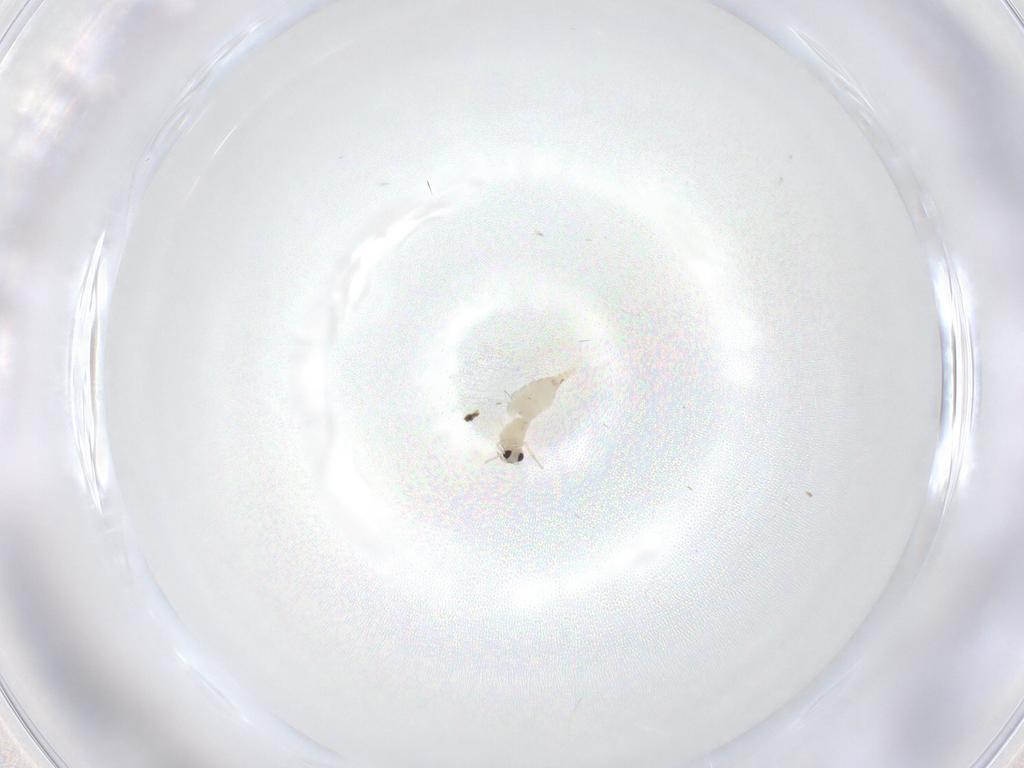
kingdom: Animalia
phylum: Arthropoda
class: Insecta
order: Diptera
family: Cecidomyiidae
